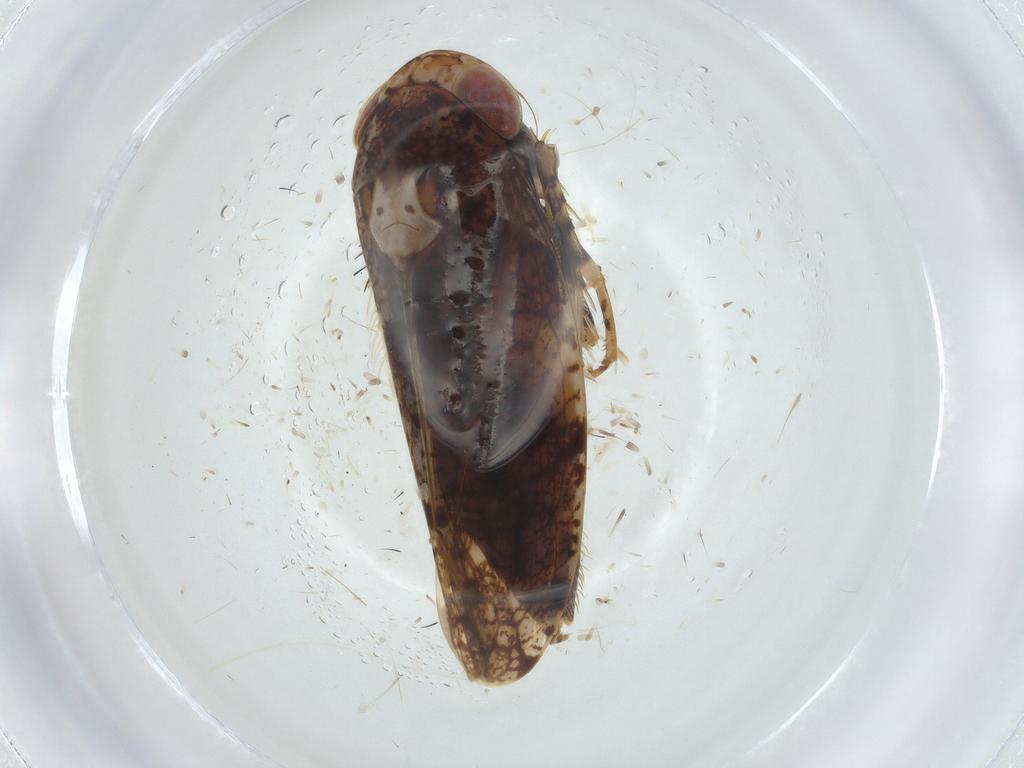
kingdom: Animalia
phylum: Arthropoda
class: Insecta
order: Hemiptera
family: Cicadellidae
